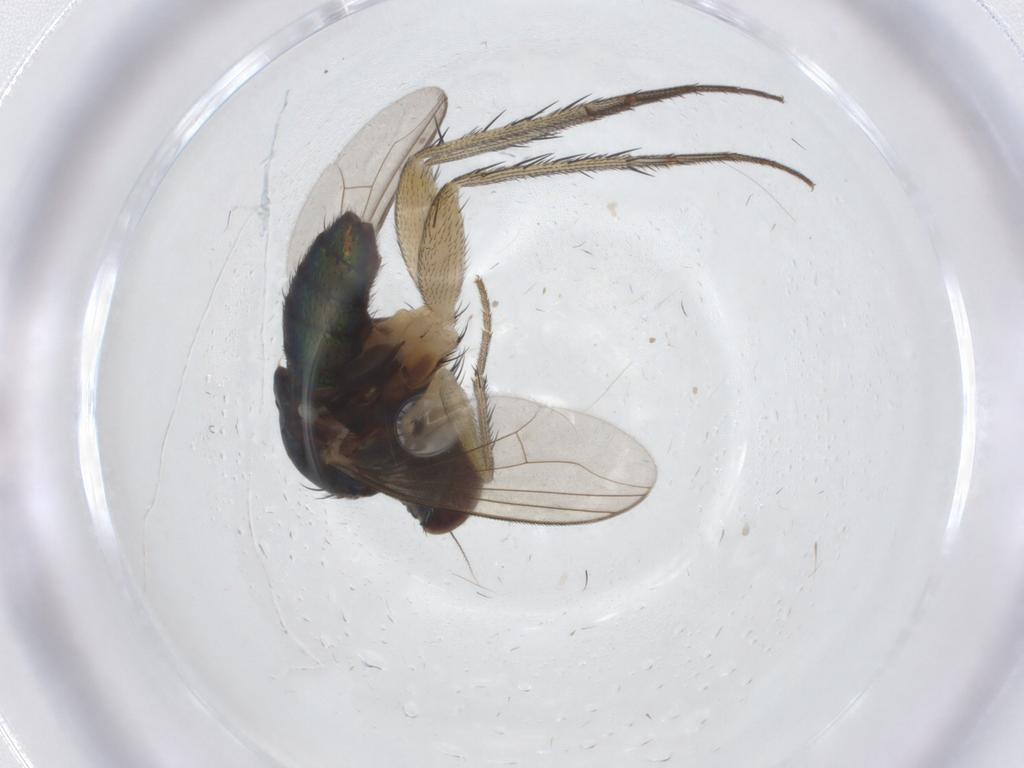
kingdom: Animalia
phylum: Arthropoda
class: Insecta
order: Diptera
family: Dolichopodidae
